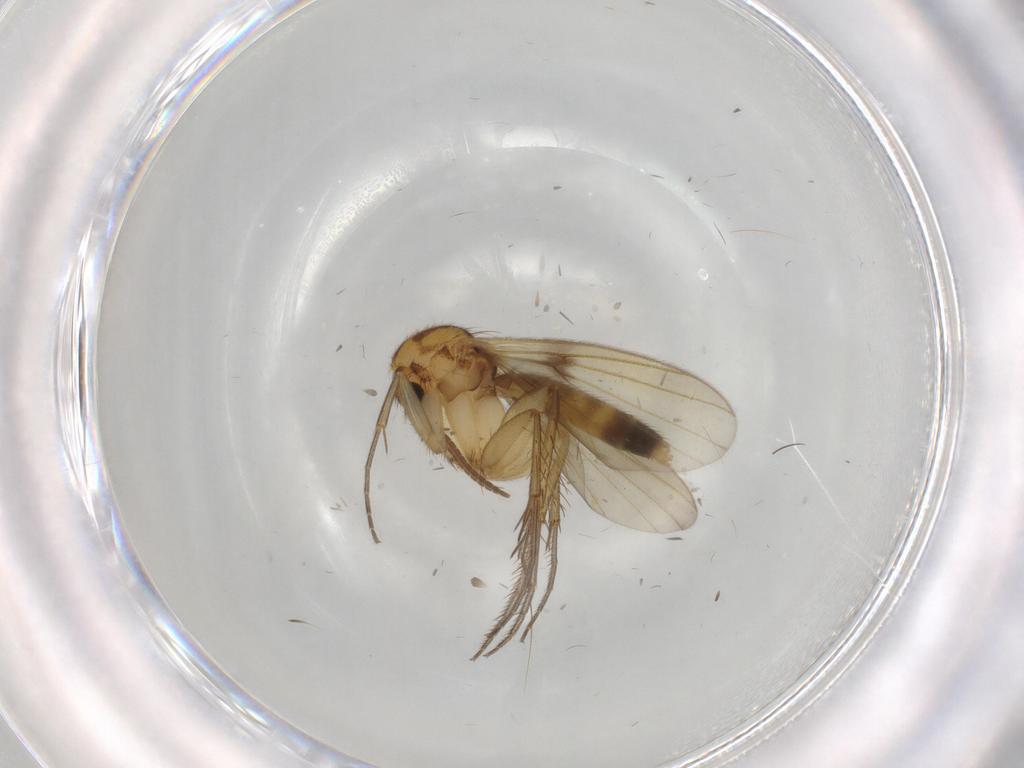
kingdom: Animalia
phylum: Arthropoda
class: Insecta
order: Diptera
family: Mycetophilidae
